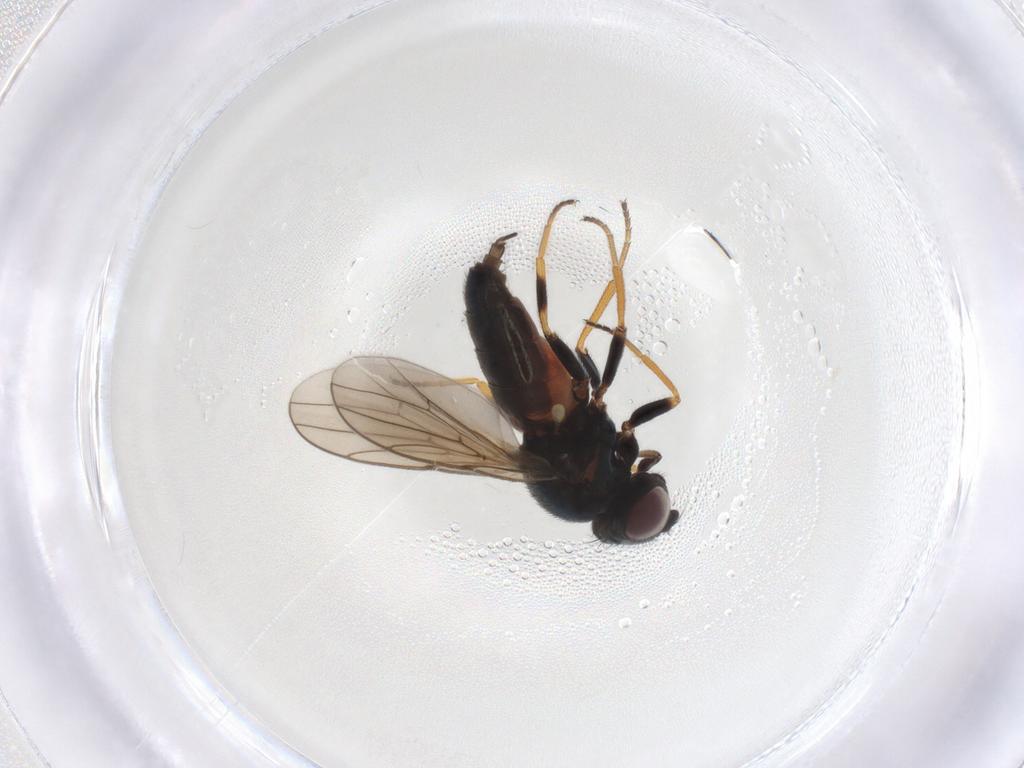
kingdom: Animalia
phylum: Arthropoda
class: Insecta
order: Diptera
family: Chloropidae
